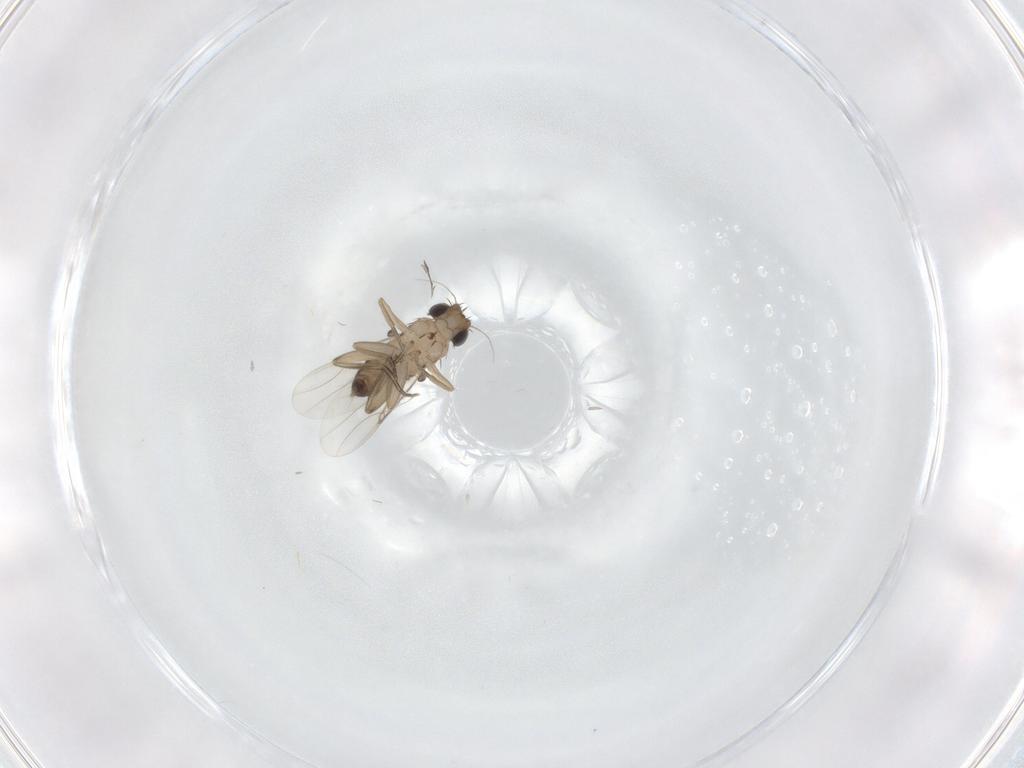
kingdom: Animalia
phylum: Arthropoda
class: Insecta
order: Diptera
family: Phoridae
